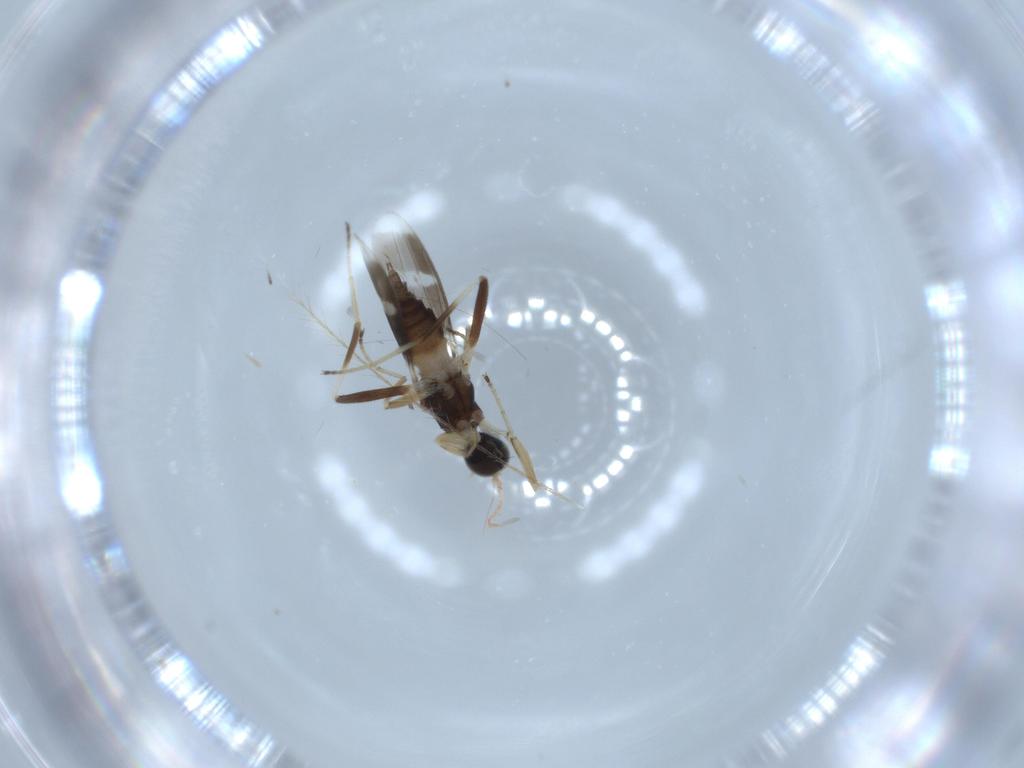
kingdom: Animalia
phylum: Arthropoda
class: Insecta
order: Diptera
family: Hybotidae
